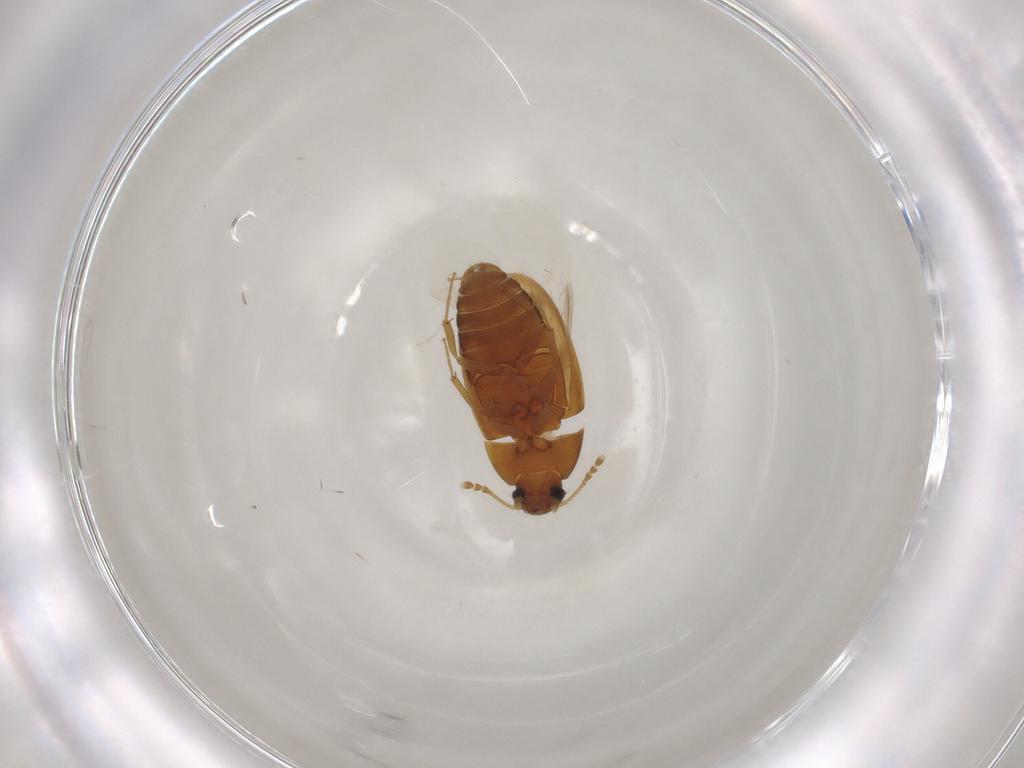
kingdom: Animalia
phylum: Arthropoda
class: Insecta
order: Coleoptera
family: Mycetophagidae
